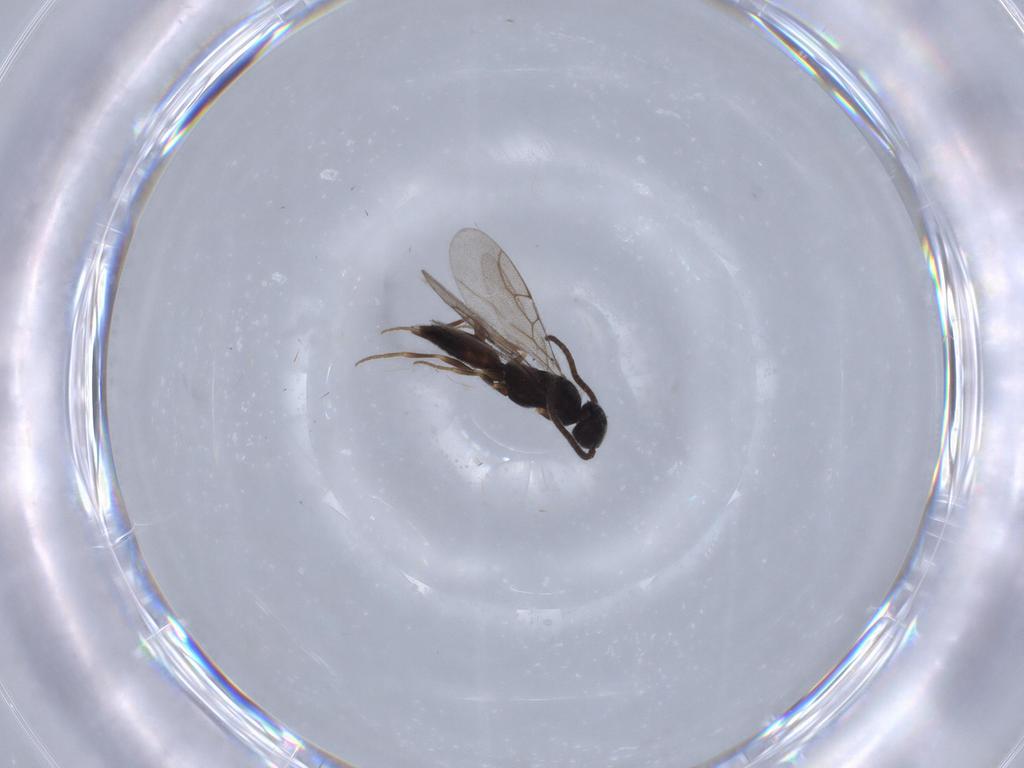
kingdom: Animalia
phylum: Arthropoda
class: Insecta
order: Hymenoptera
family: Sclerogibbidae
